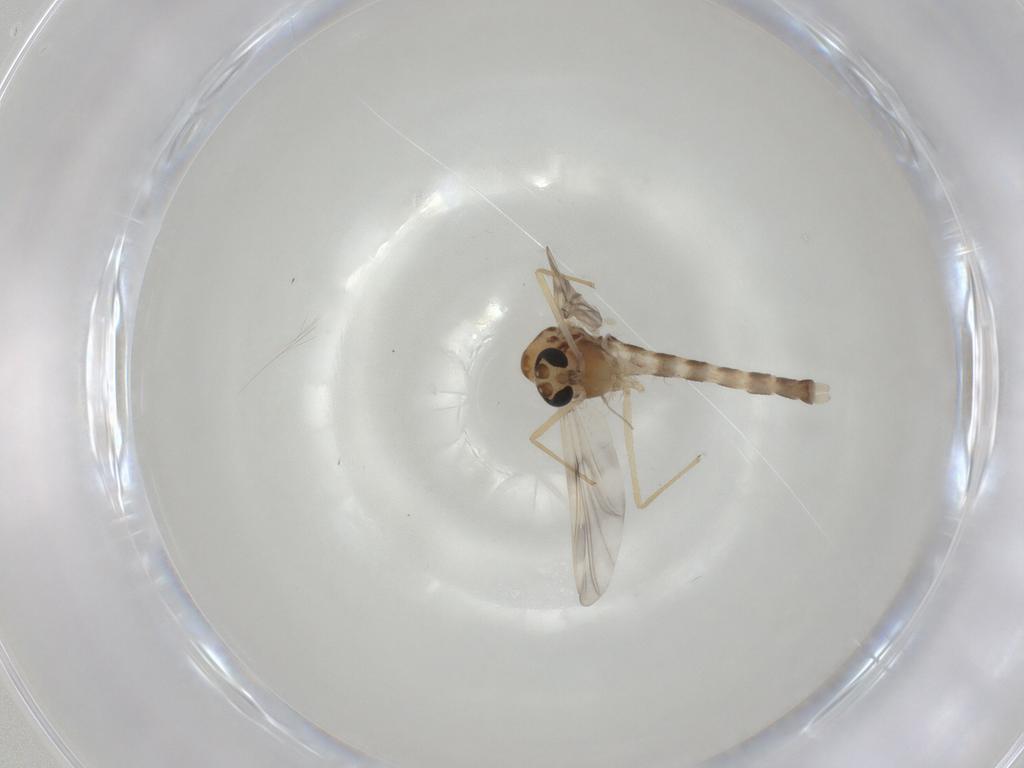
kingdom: Animalia
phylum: Arthropoda
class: Insecta
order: Diptera
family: Chironomidae
